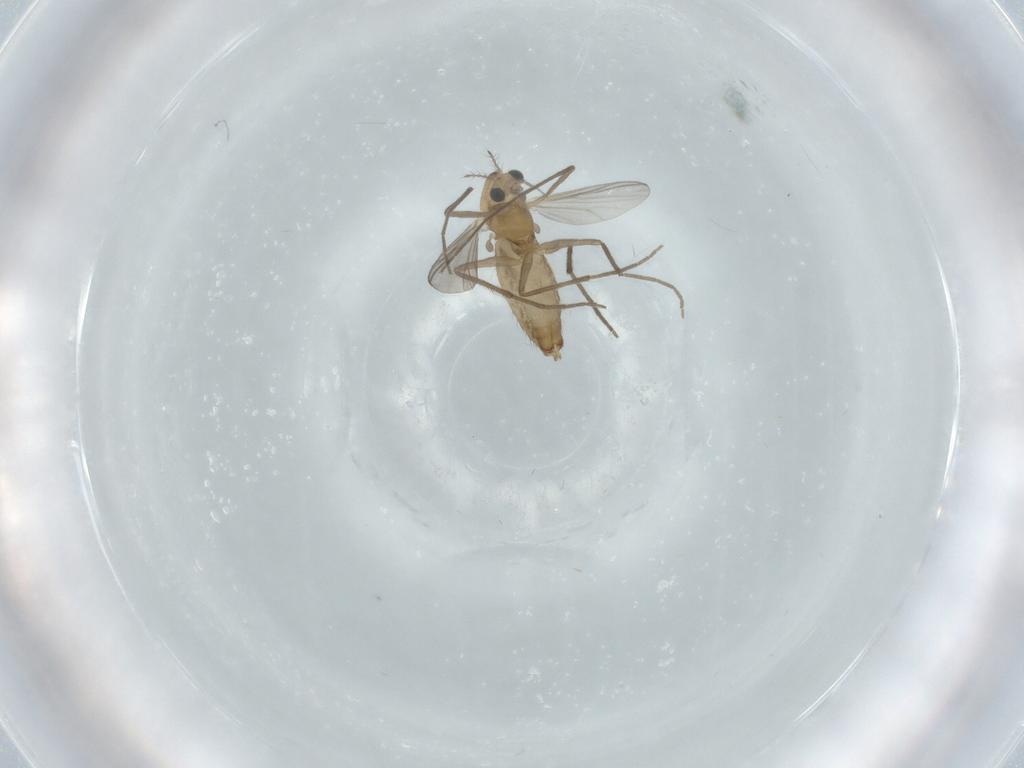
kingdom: Animalia
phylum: Arthropoda
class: Insecta
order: Diptera
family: Chironomidae
